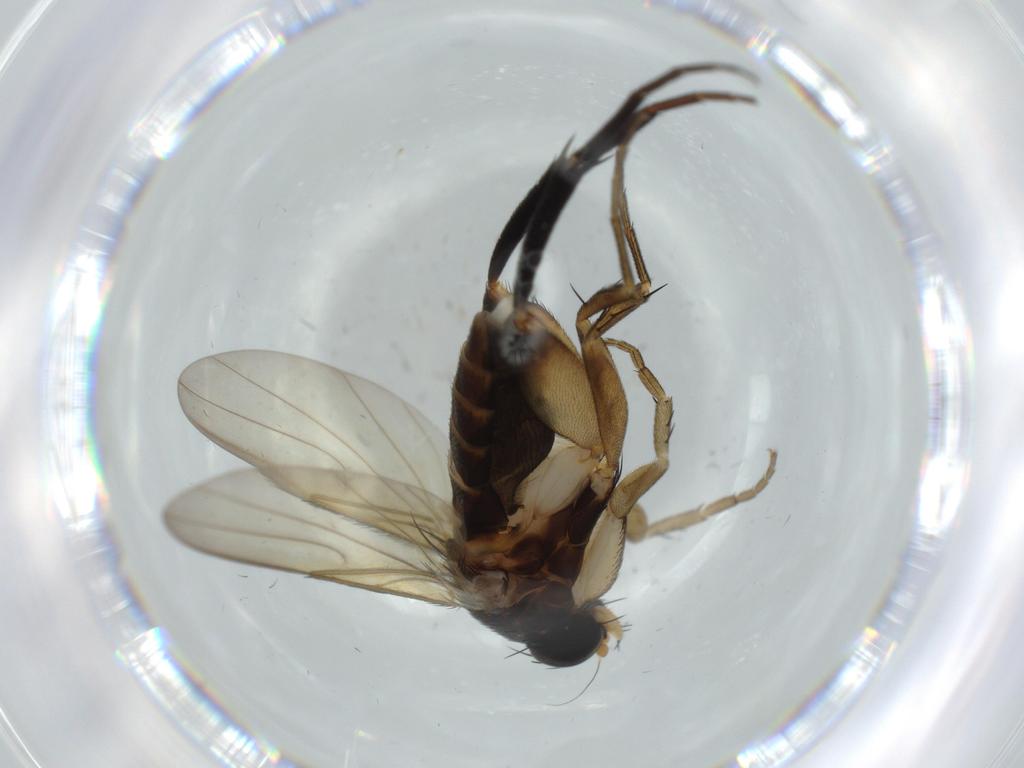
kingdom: Animalia
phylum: Arthropoda
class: Insecta
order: Diptera
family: Phoridae
